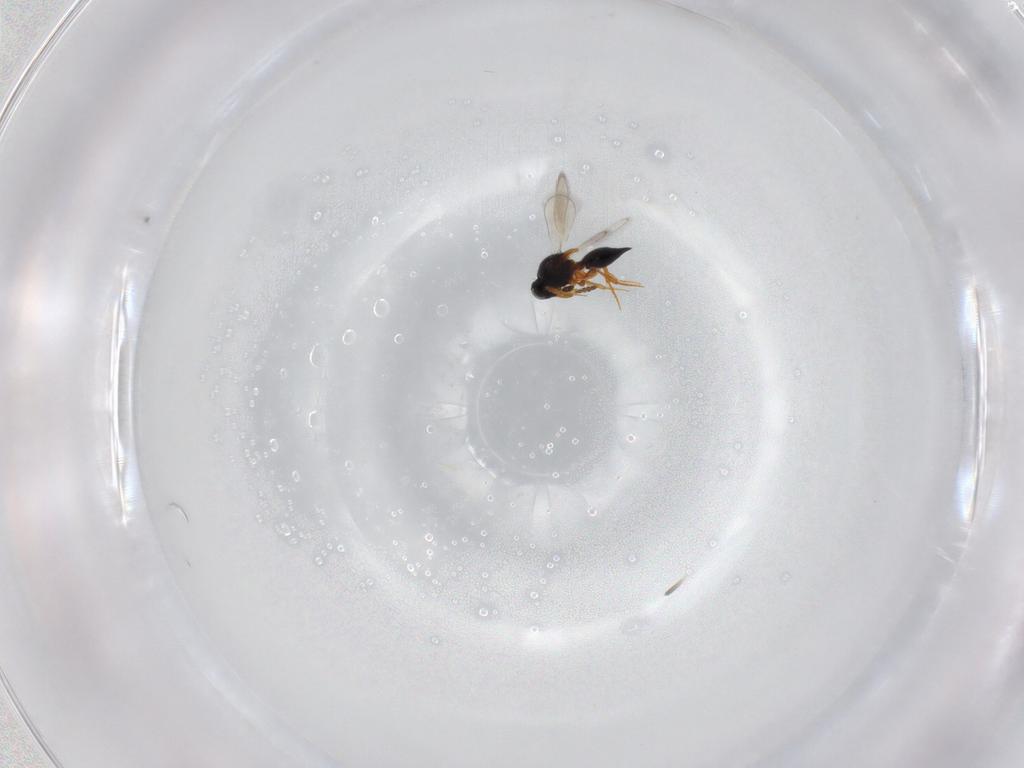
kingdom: Animalia
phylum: Arthropoda
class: Insecta
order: Hymenoptera
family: Platygastridae
